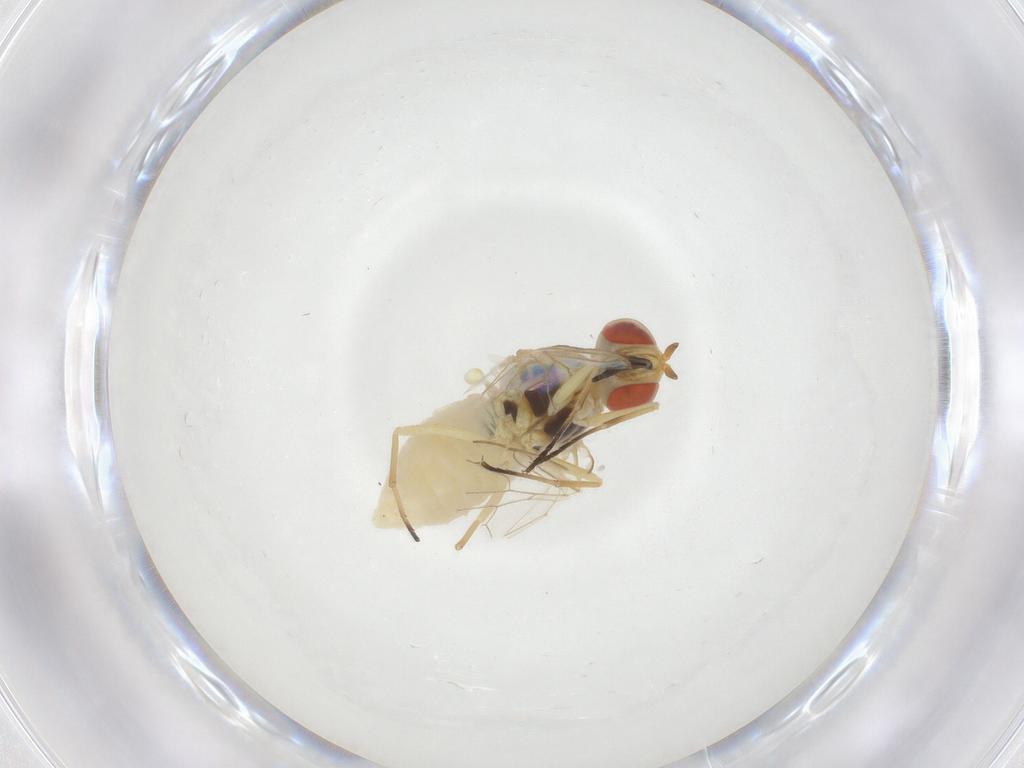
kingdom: Animalia
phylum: Arthropoda
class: Insecta
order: Diptera
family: Bombyliidae
